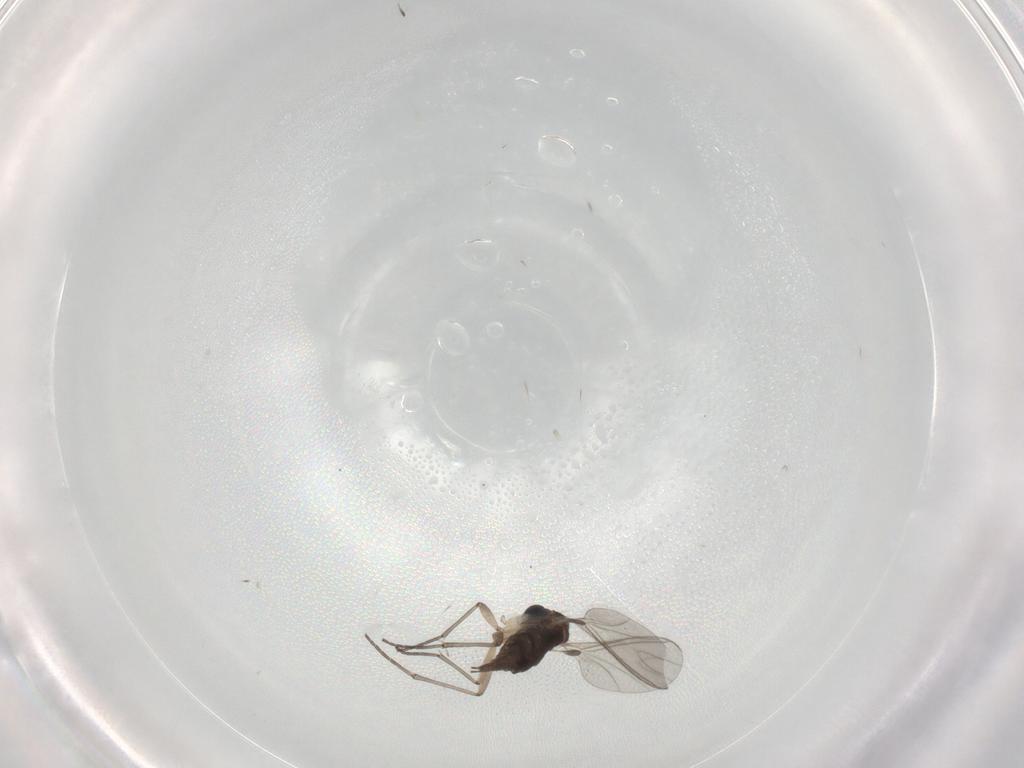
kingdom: Animalia
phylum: Arthropoda
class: Insecta
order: Diptera
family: Sciaridae
